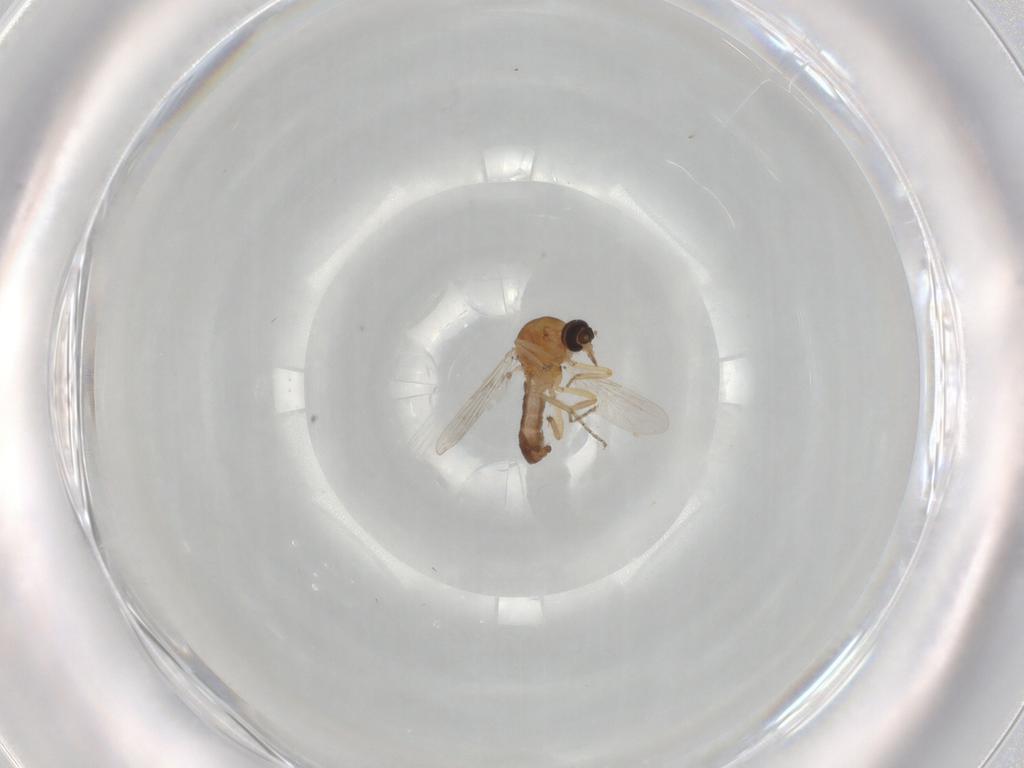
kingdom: Animalia
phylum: Arthropoda
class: Insecta
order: Diptera
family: Ceratopogonidae
